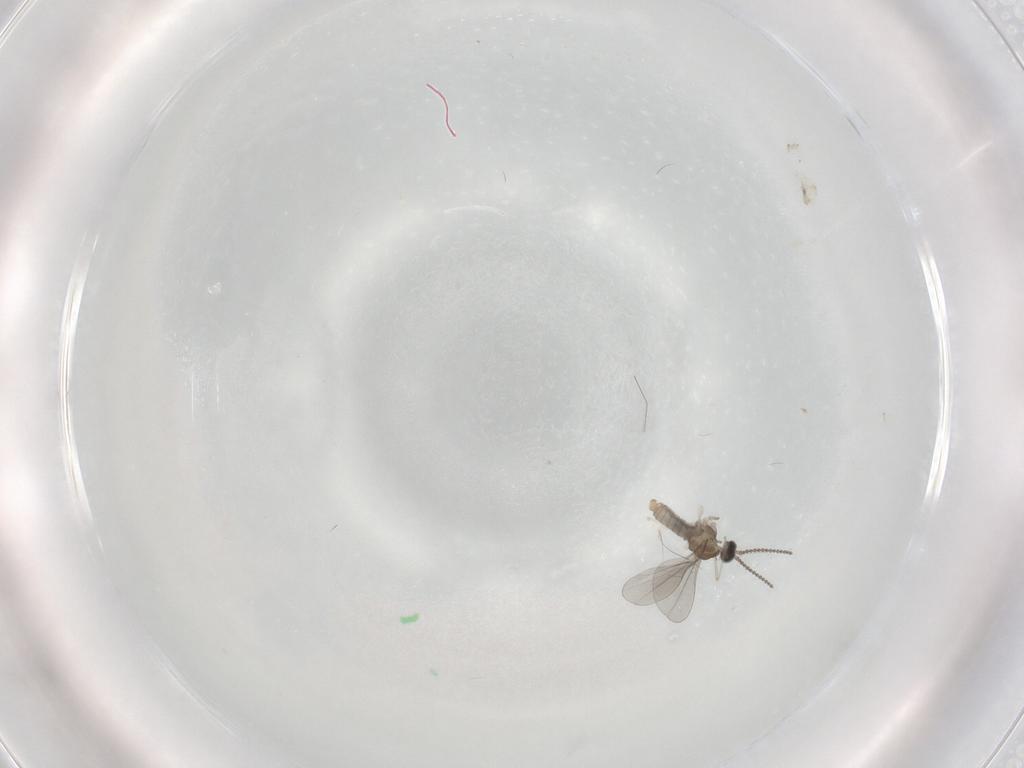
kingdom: Animalia
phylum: Arthropoda
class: Insecta
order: Diptera
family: Cecidomyiidae
